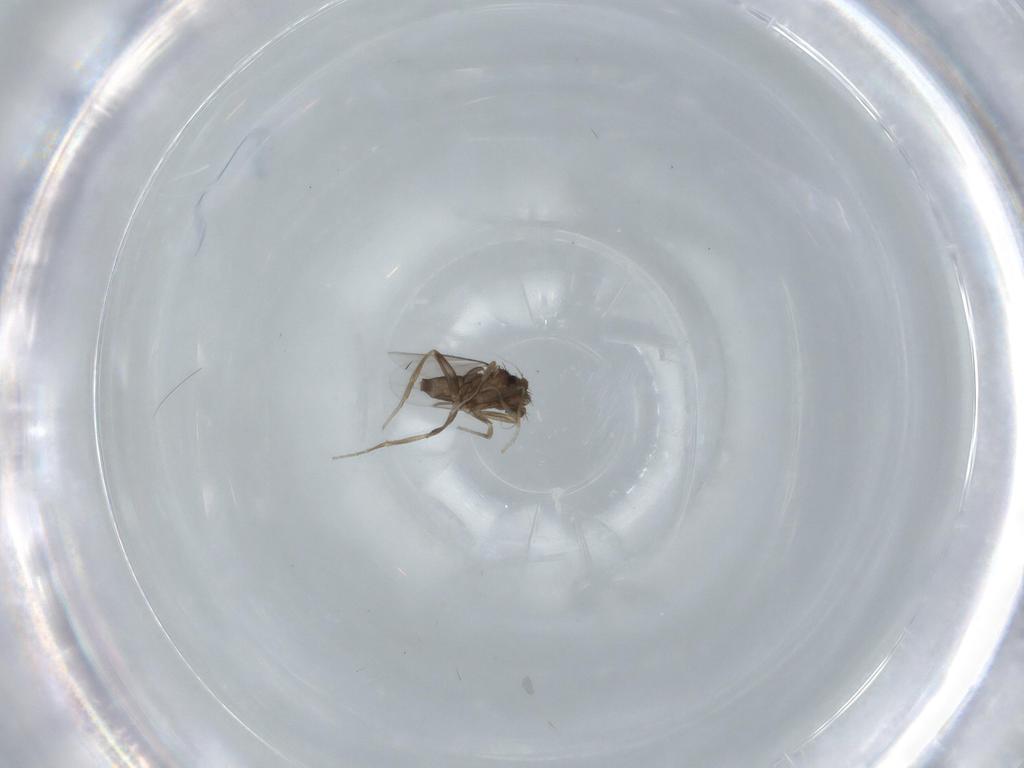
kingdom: Animalia
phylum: Arthropoda
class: Insecta
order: Diptera
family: Phoridae
